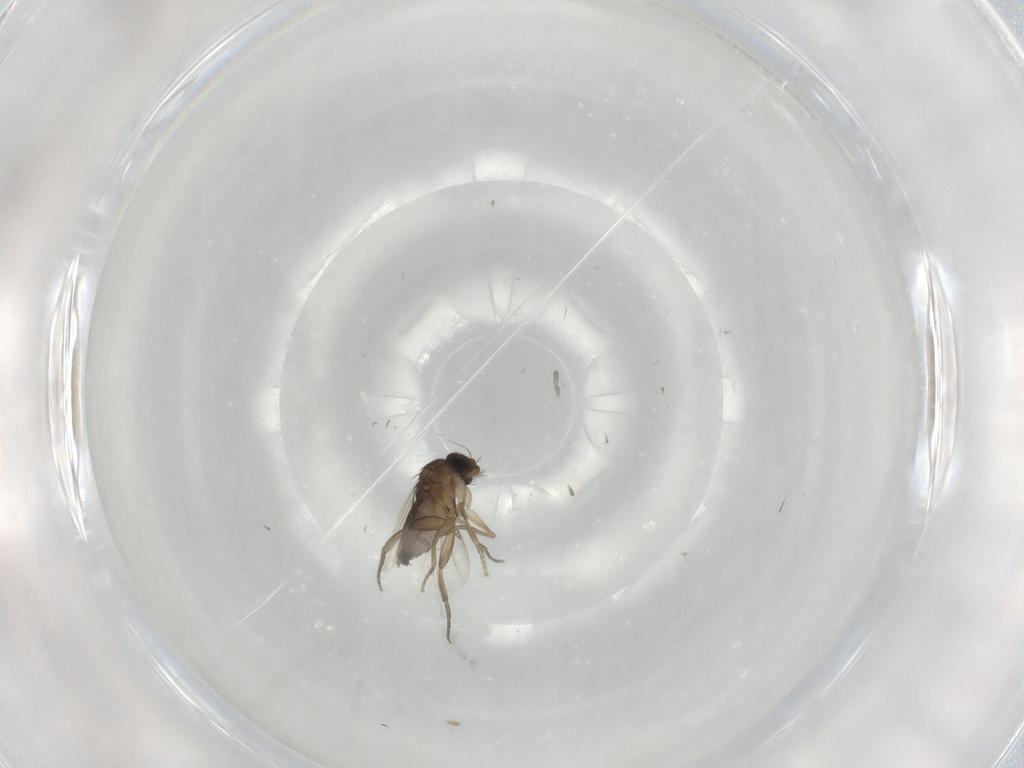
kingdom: Animalia
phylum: Arthropoda
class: Insecta
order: Diptera
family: Phoridae
